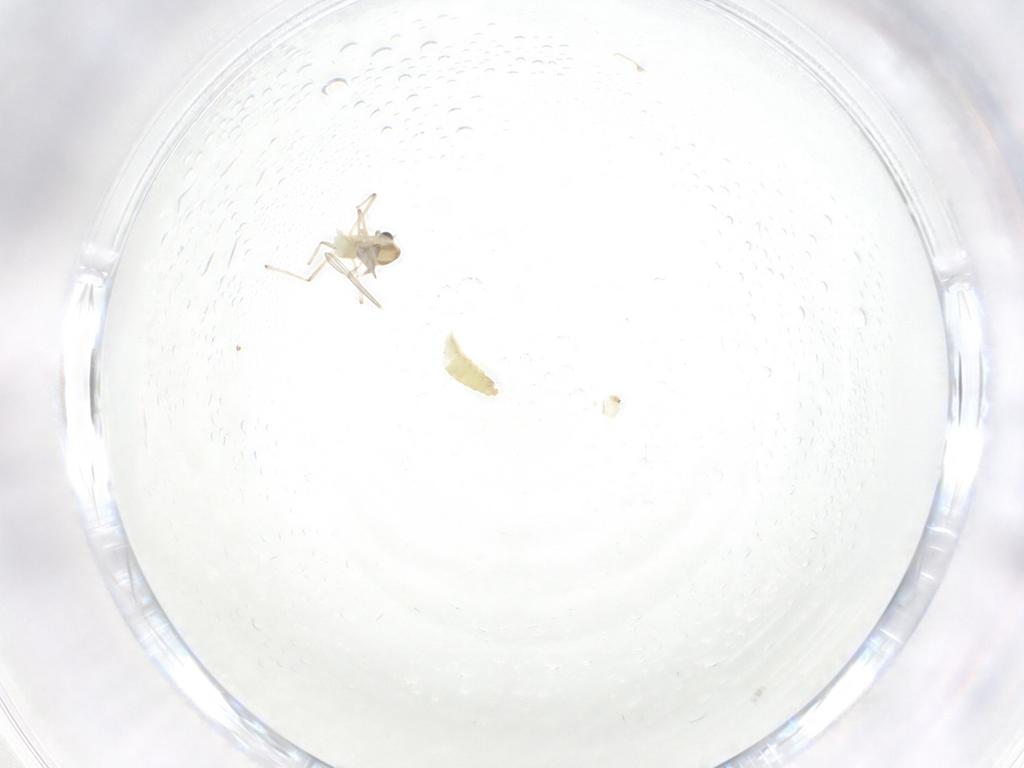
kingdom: Animalia
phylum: Arthropoda
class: Insecta
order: Diptera
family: Chironomidae
